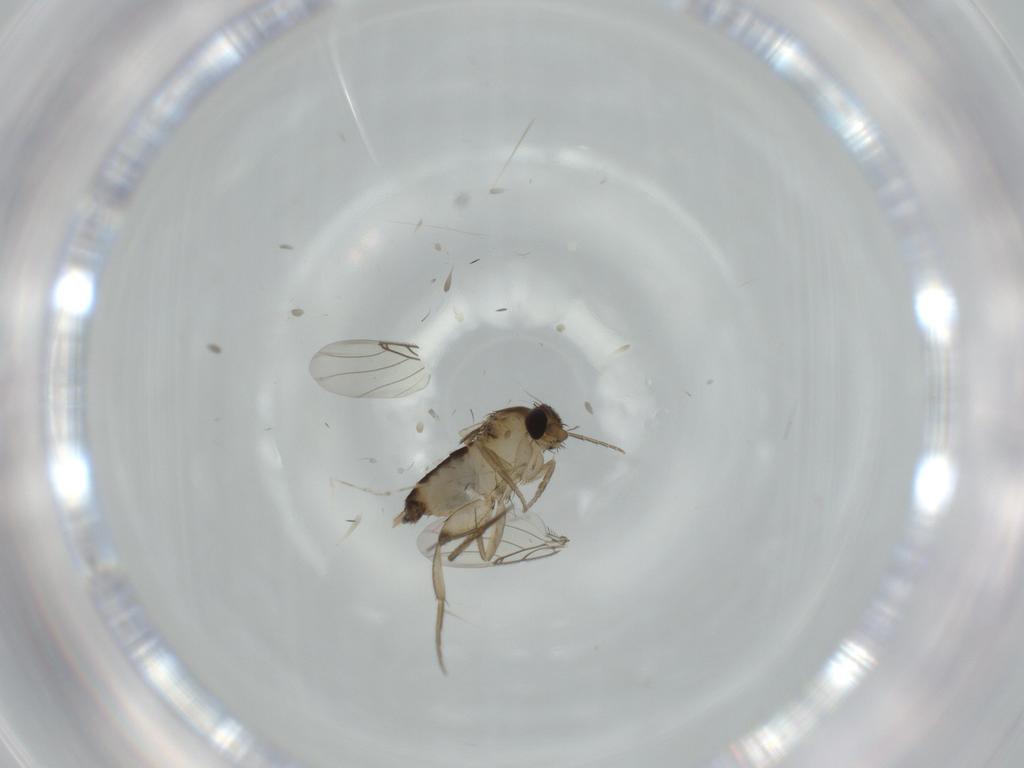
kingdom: Animalia
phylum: Arthropoda
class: Insecta
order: Diptera
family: Phoridae
